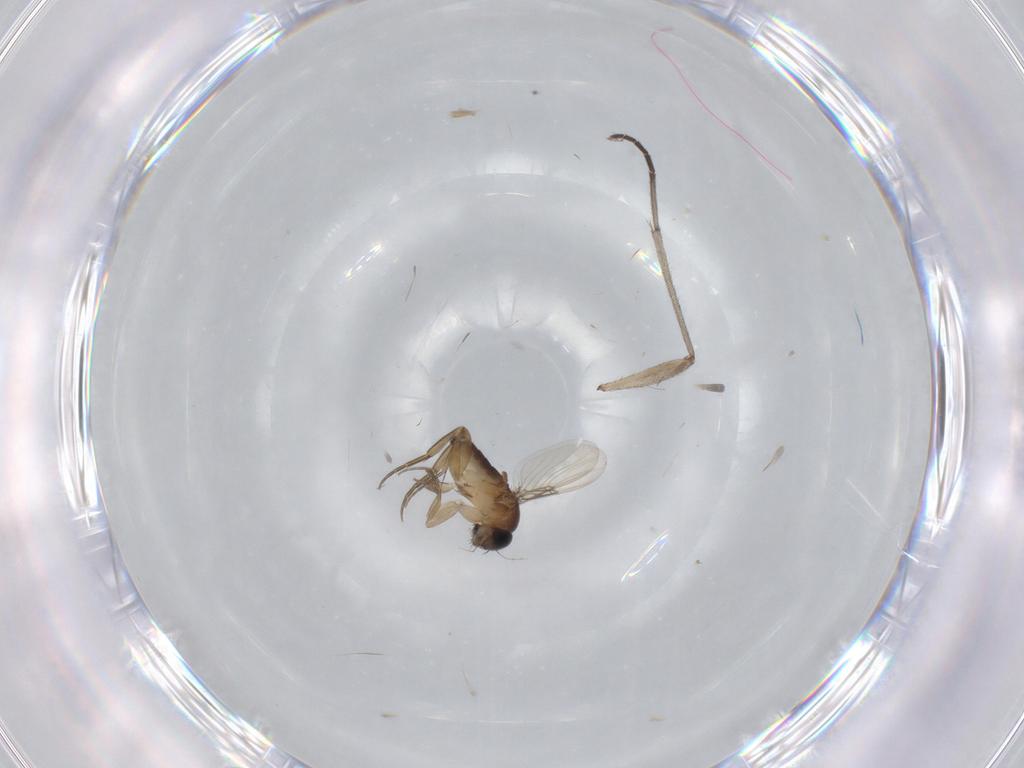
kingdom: Animalia
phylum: Arthropoda
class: Insecta
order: Diptera
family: Phoridae
